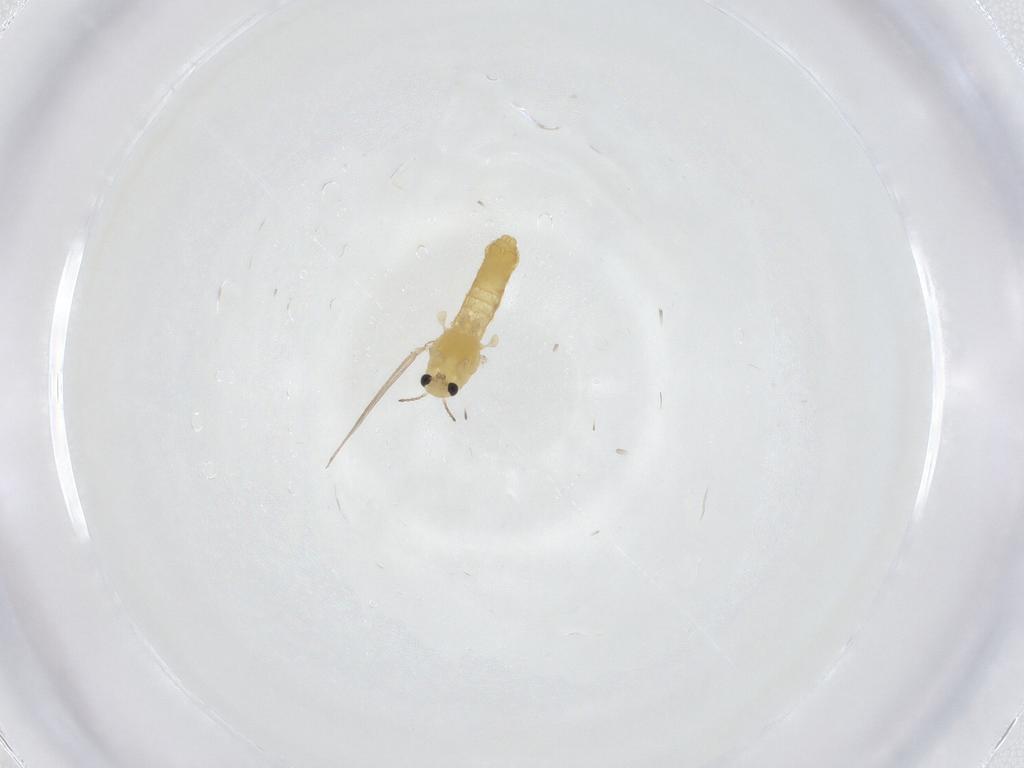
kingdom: Animalia
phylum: Arthropoda
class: Insecta
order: Diptera
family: Chironomidae
